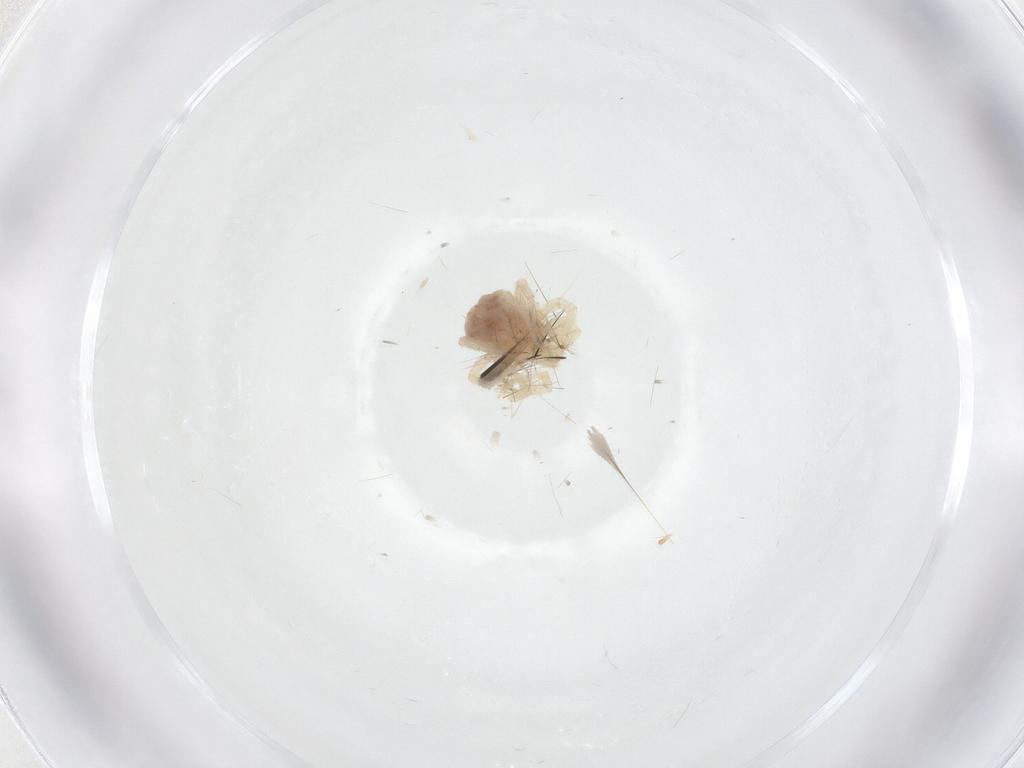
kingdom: Animalia
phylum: Arthropoda
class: Arachnida
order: Trombidiformes
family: Anystidae
